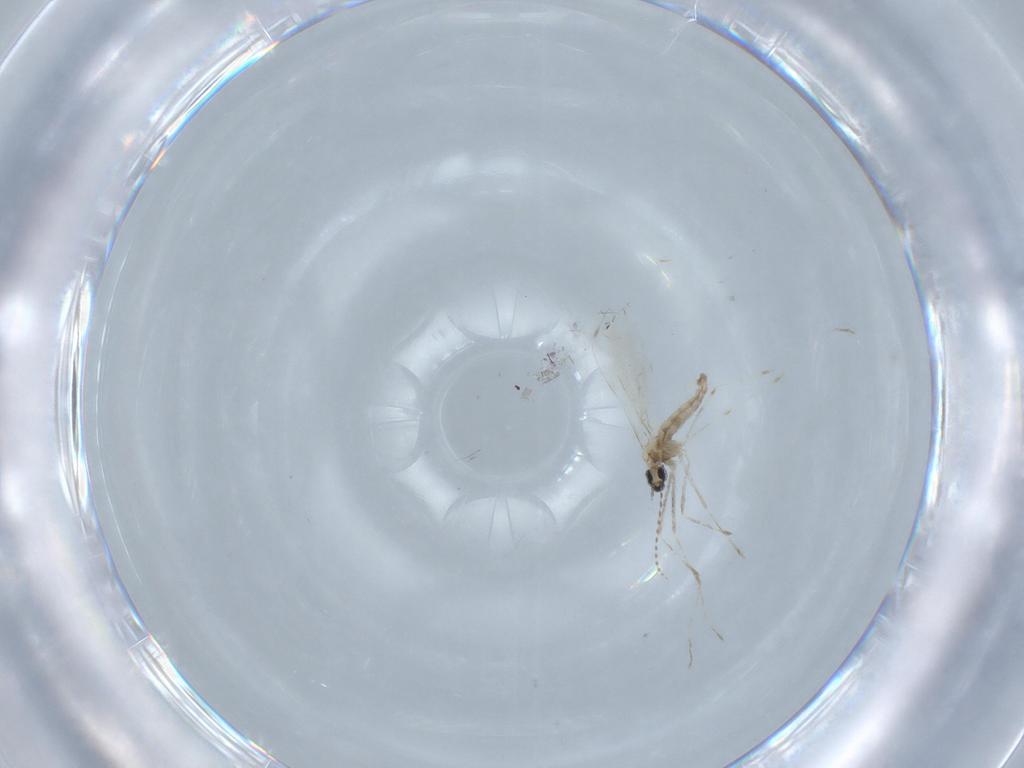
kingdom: Animalia
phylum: Arthropoda
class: Insecta
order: Diptera
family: Cecidomyiidae
